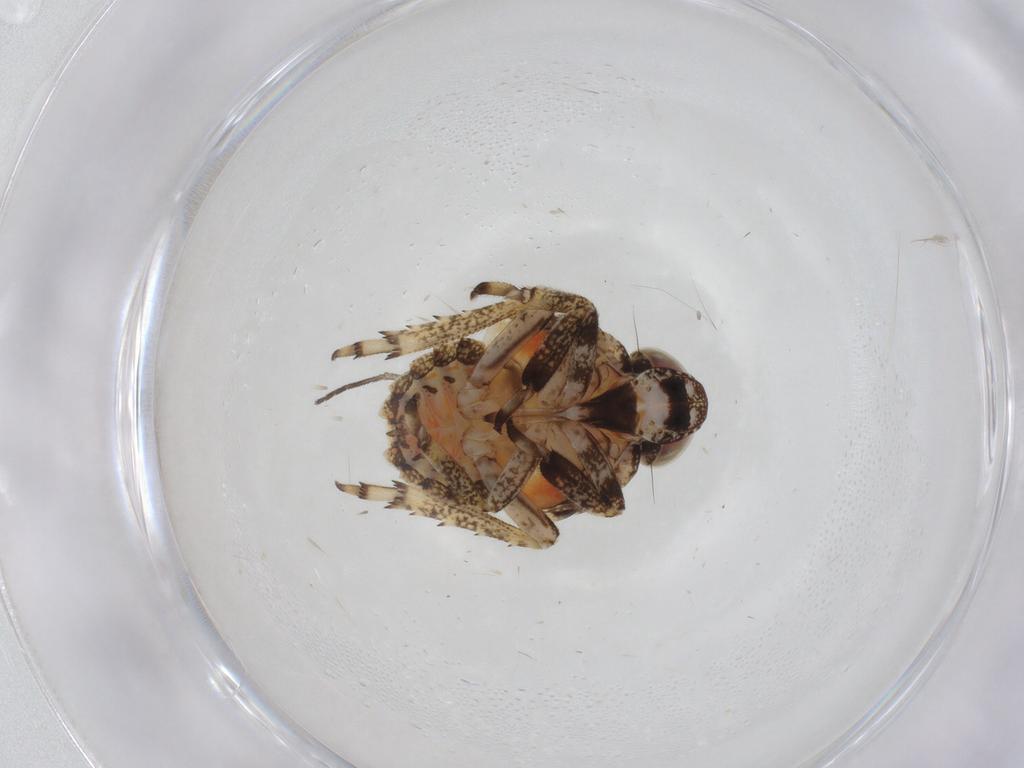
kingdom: Animalia
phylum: Arthropoda
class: Insecta
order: Hemiptera
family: Issidae
